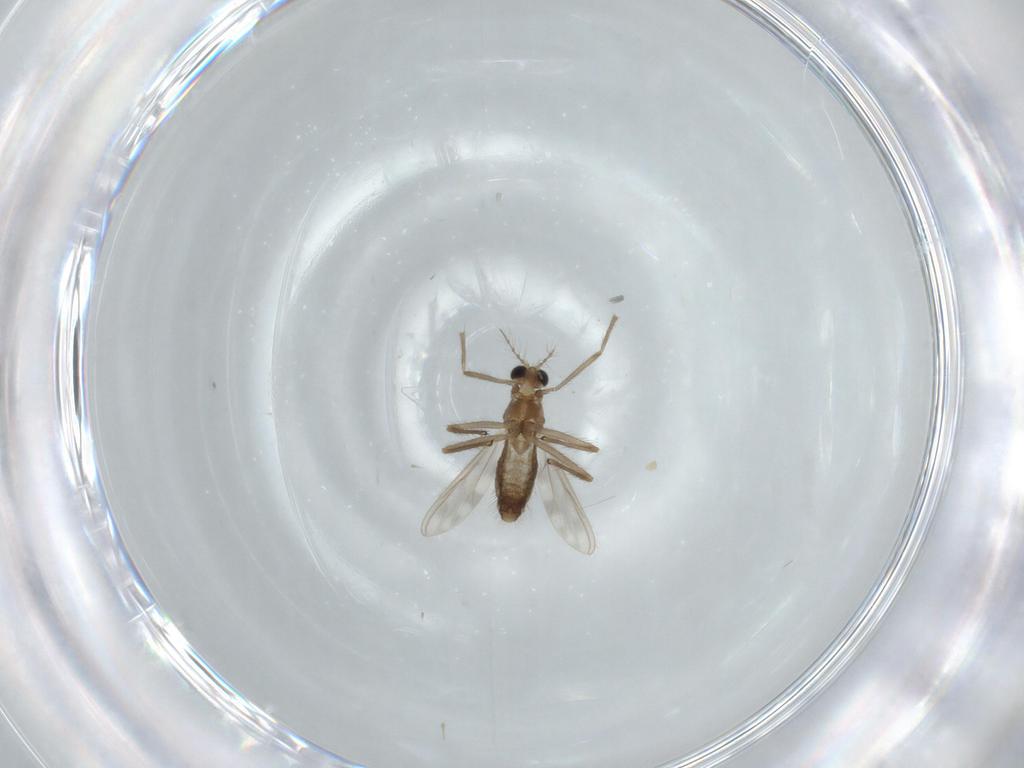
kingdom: Animalia
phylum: Arthropoda
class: Insecta
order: Diptera
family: Chironomidae
